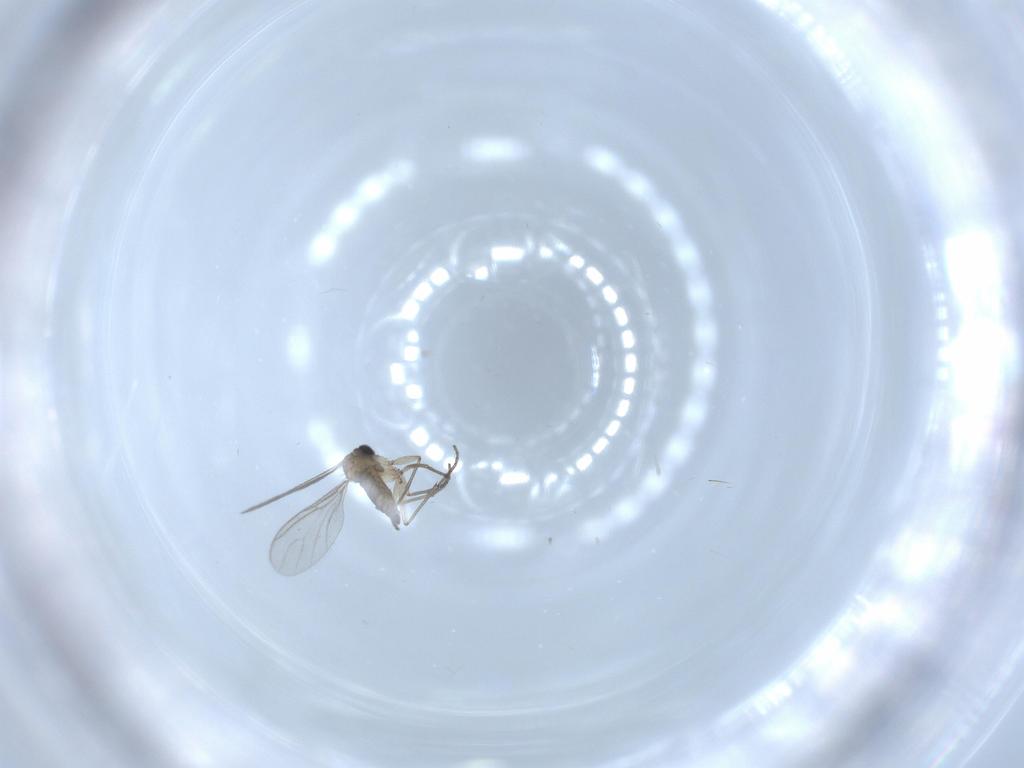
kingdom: Animalia
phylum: Arthropoda
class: Insecta
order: Diptera
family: Sciaridae
